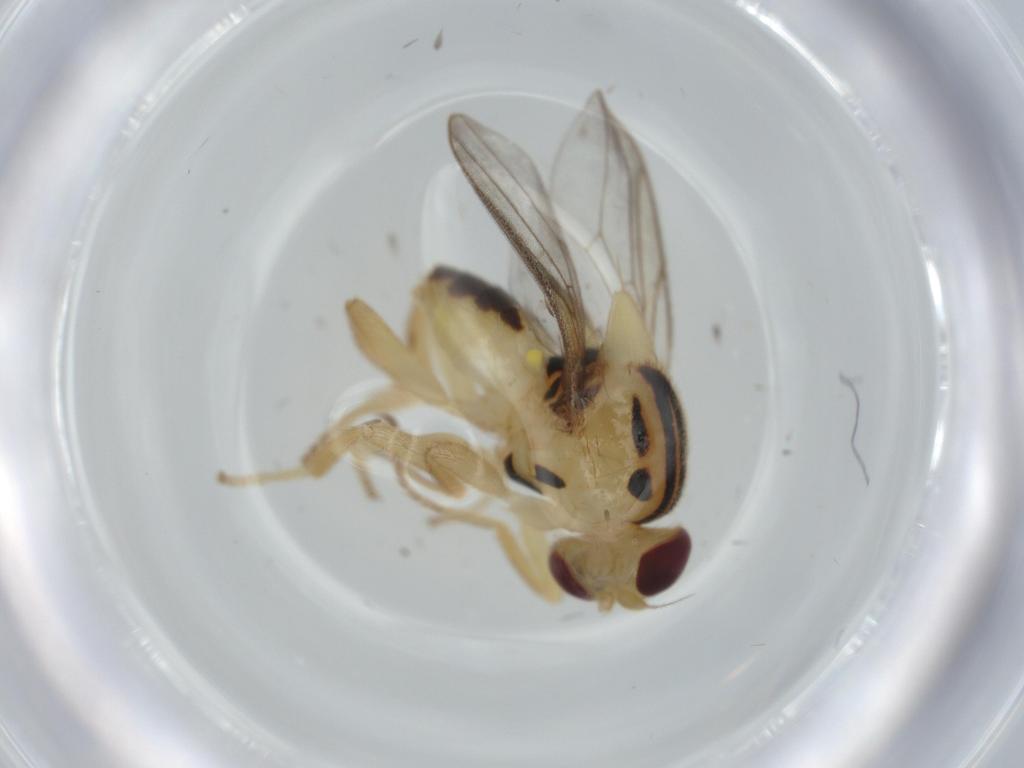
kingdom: Animalia
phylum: Arthropoda
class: Insecta
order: Diptera
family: Chloropidae
